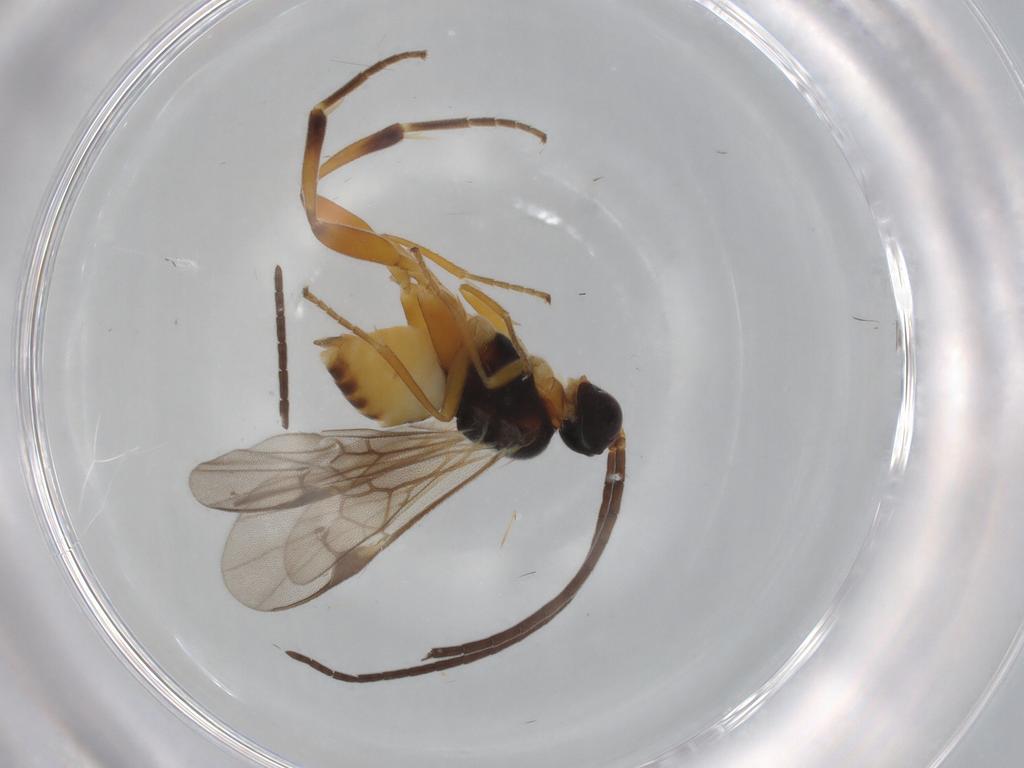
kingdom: Animalia
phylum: Arthropoda
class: Insecta
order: Hymenoptera
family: Braconidae
